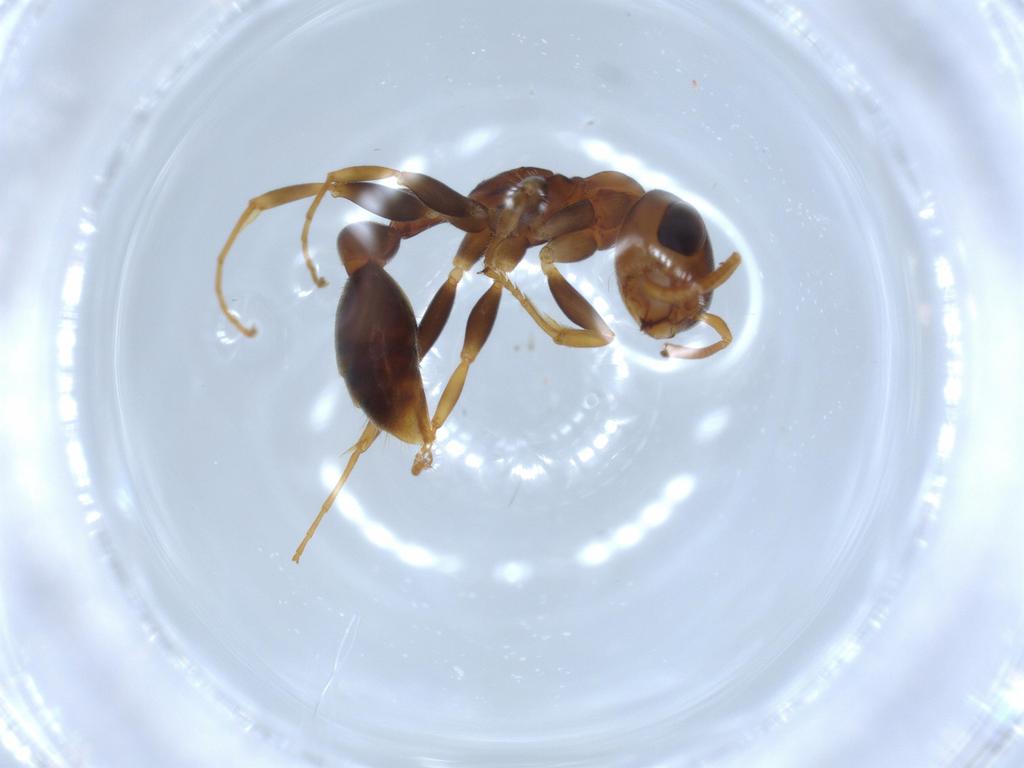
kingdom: Animalia
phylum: Arthropoda
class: Insecta
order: Hymenoptera
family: Formicidae
